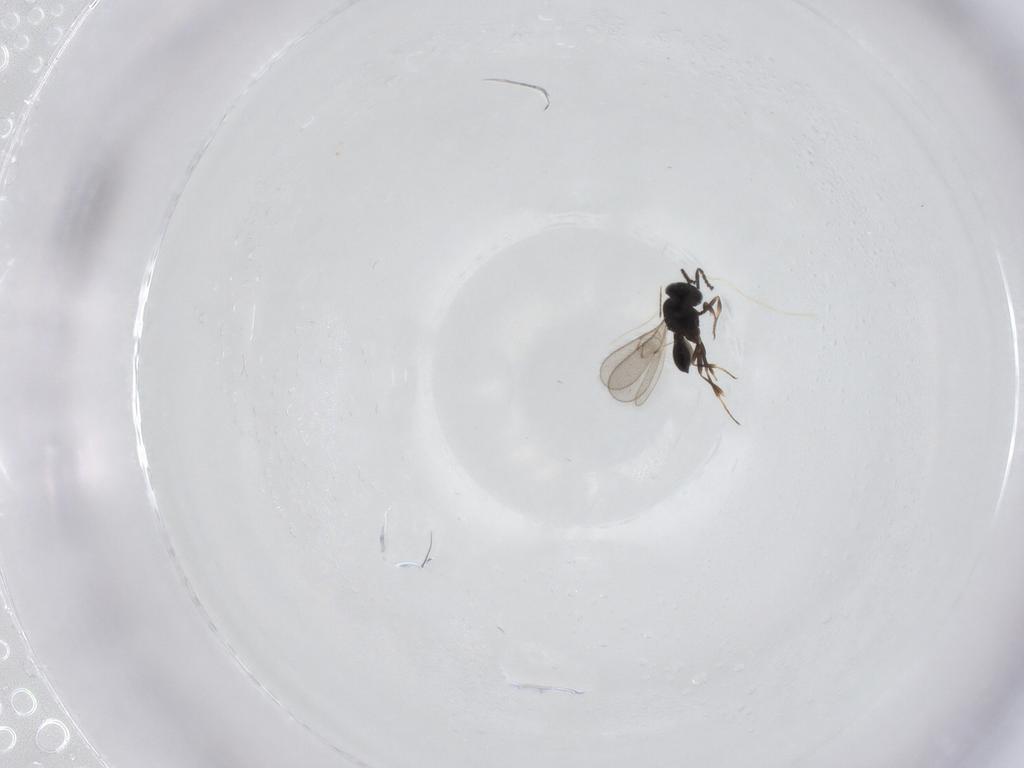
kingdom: Animalia
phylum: Arthropoda
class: Insecta
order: Hymenoptera
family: Scelionidae
